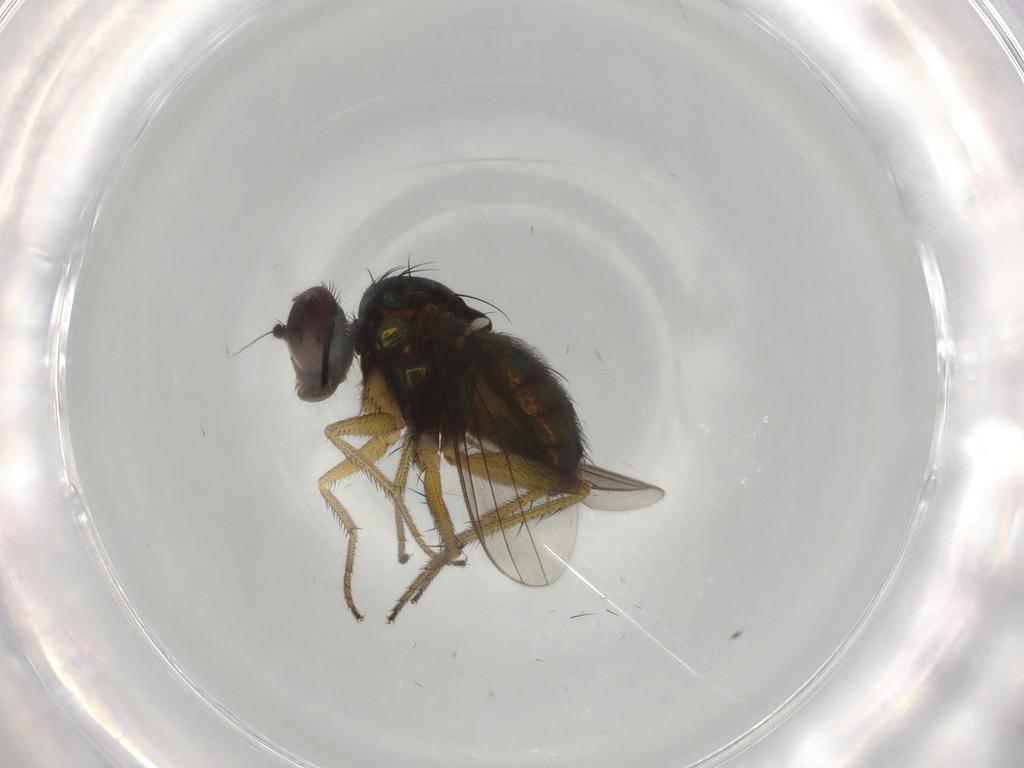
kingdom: Animalia
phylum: Arthropoda
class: Insecta
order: Diptera
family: Dolichopodidae
